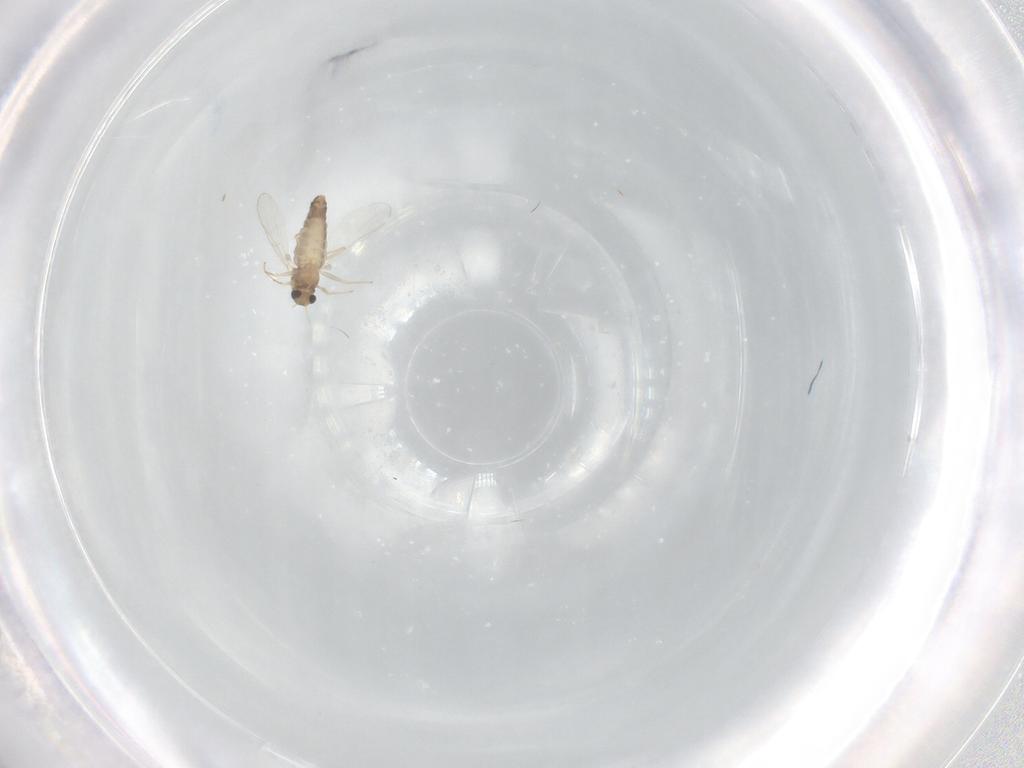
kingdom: Animalia
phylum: Arthropoda
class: Insecta
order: Diptera
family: Chironomidae
